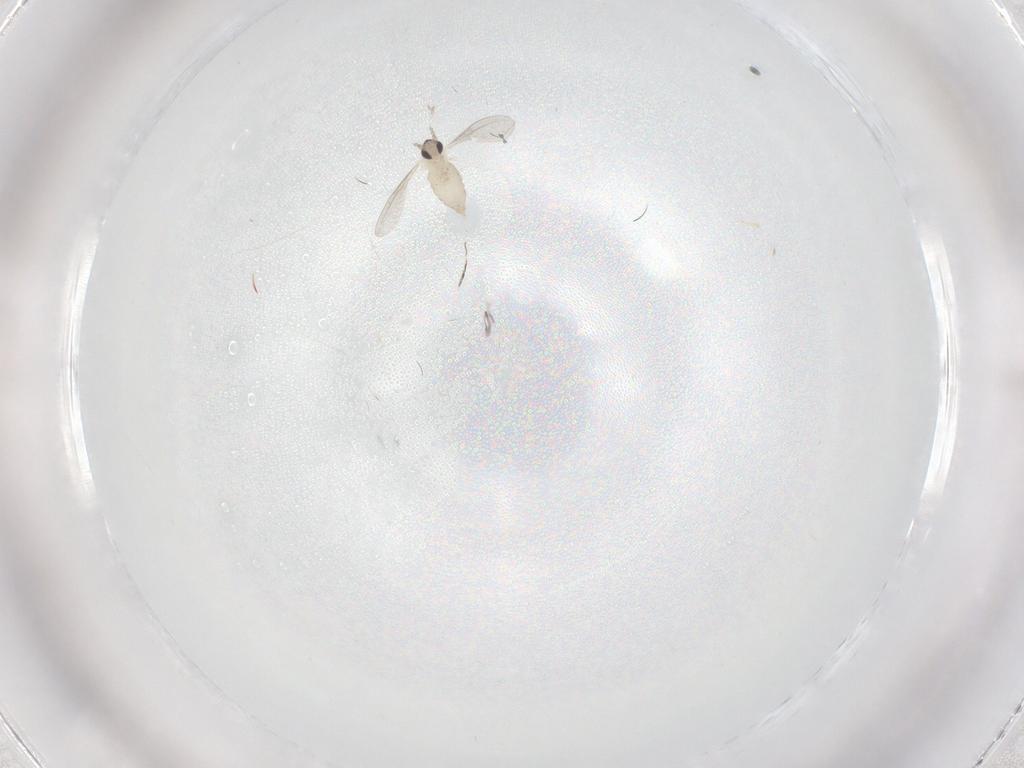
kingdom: Animalia
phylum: Arthropoda
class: Insecta
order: Diptera
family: Cecidomyiidae
